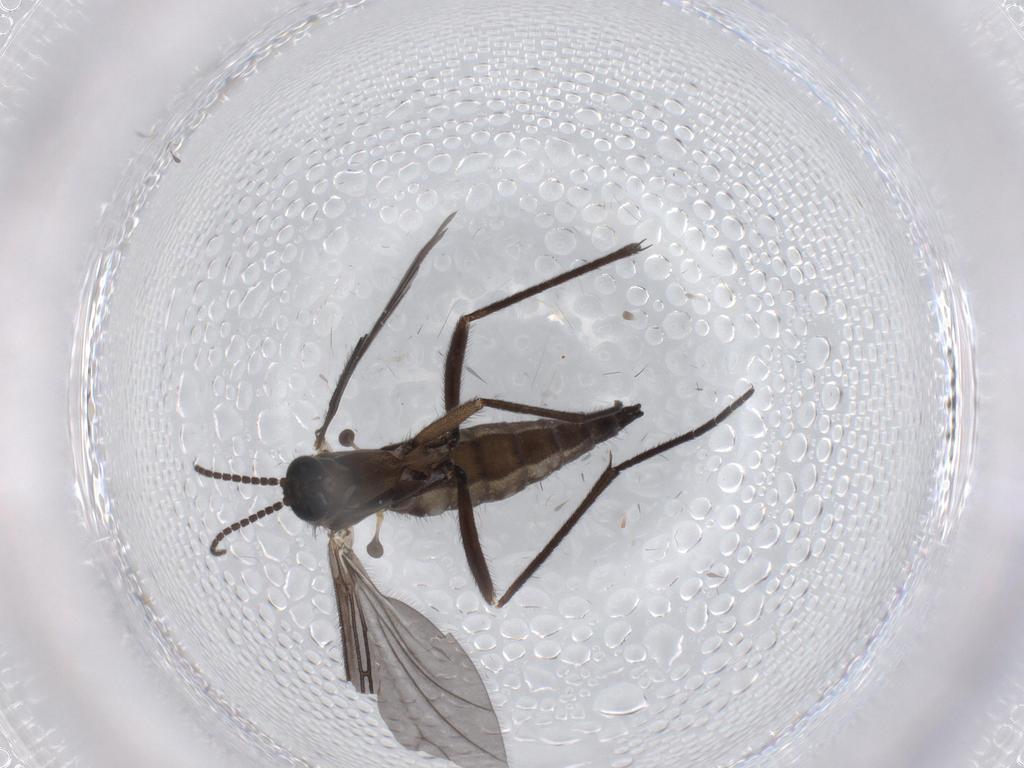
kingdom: Animalia
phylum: Arthropoda
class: Insecta
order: Diptera
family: Sciaridae
